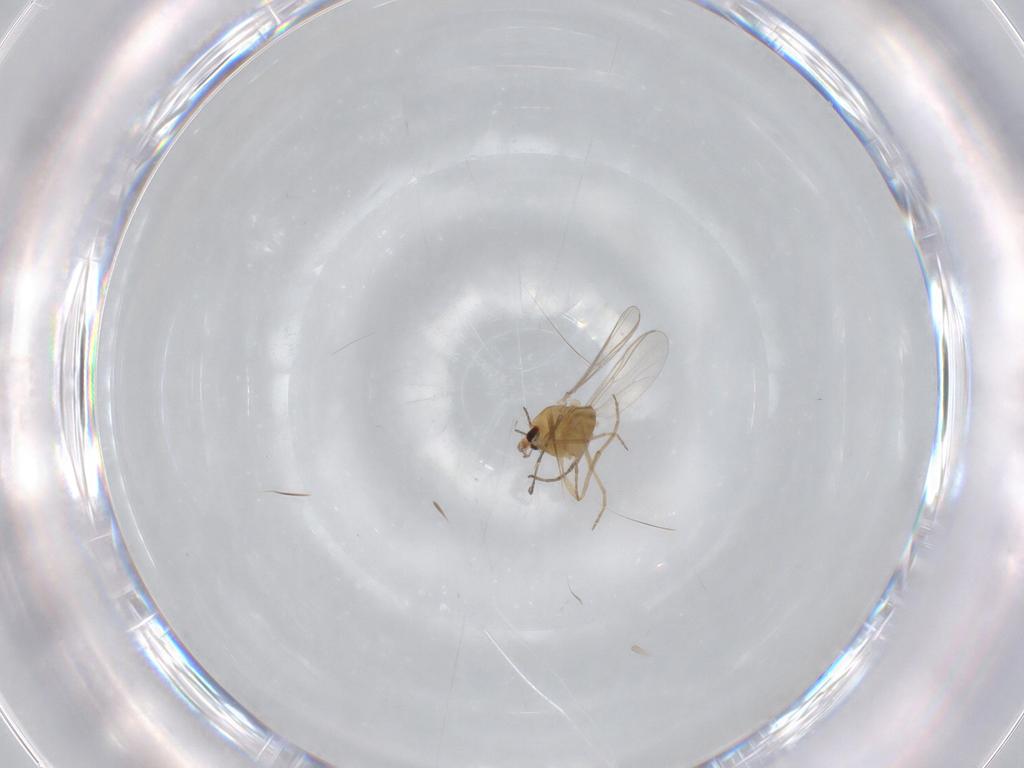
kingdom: Animalia
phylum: Arthropoda
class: Insecta
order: Diptera
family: Chironomidae
